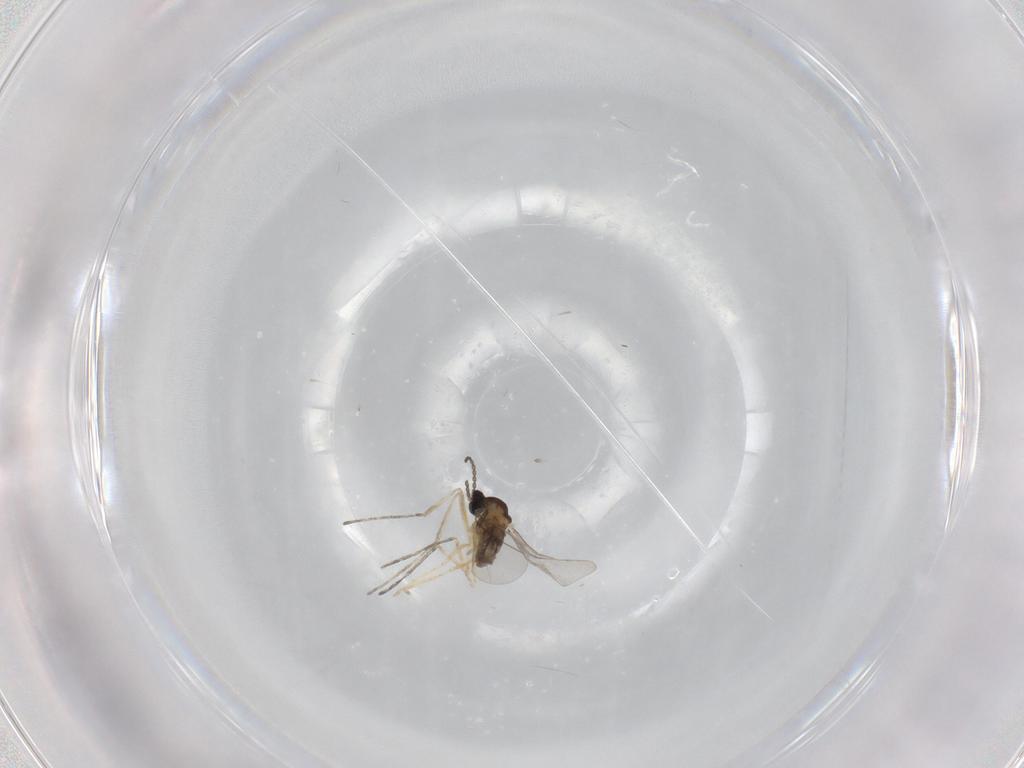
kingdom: Animalia
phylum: Arthropoda
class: Insecta
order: Diptera
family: Cecidomyiidae
